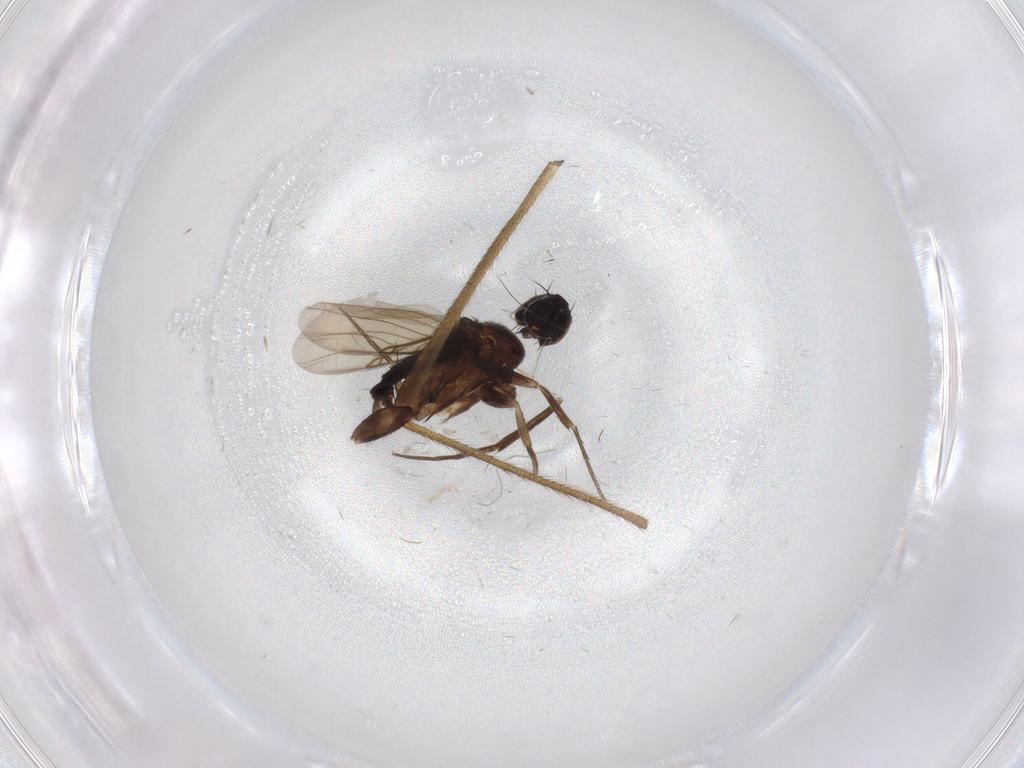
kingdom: Animalia
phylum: Arthropoda
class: Insecta
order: Diptera
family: Phoridae
